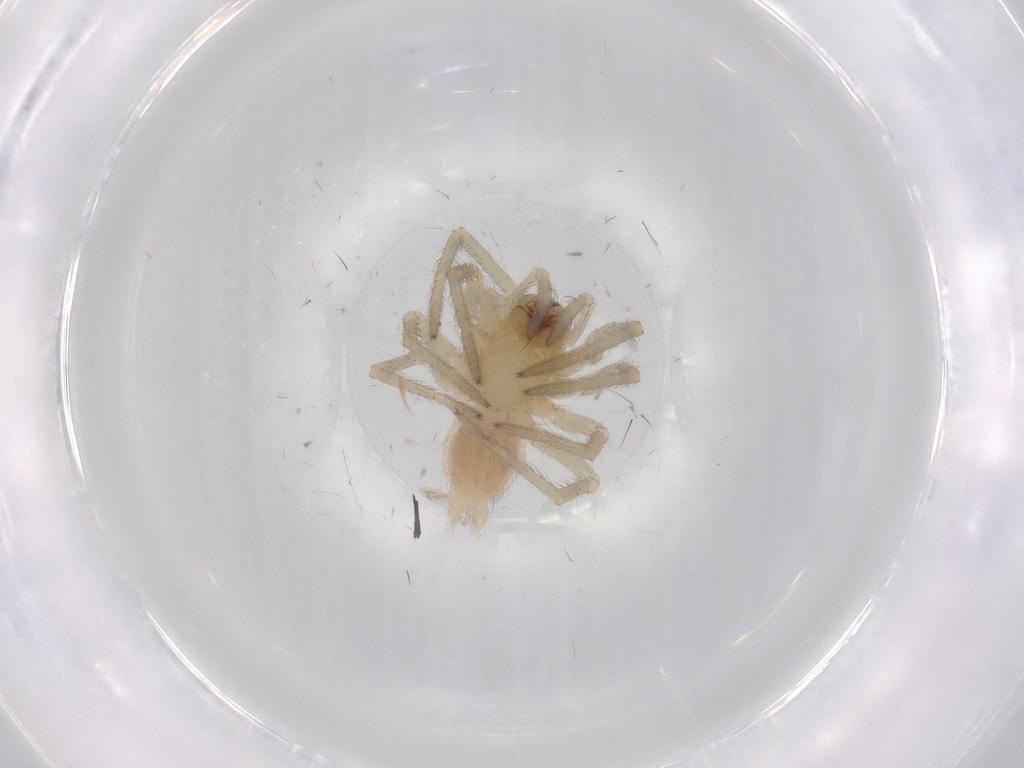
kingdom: Animalia
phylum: Arthropoda
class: Arachnida
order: Araneae
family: Cheiracanthiidae
